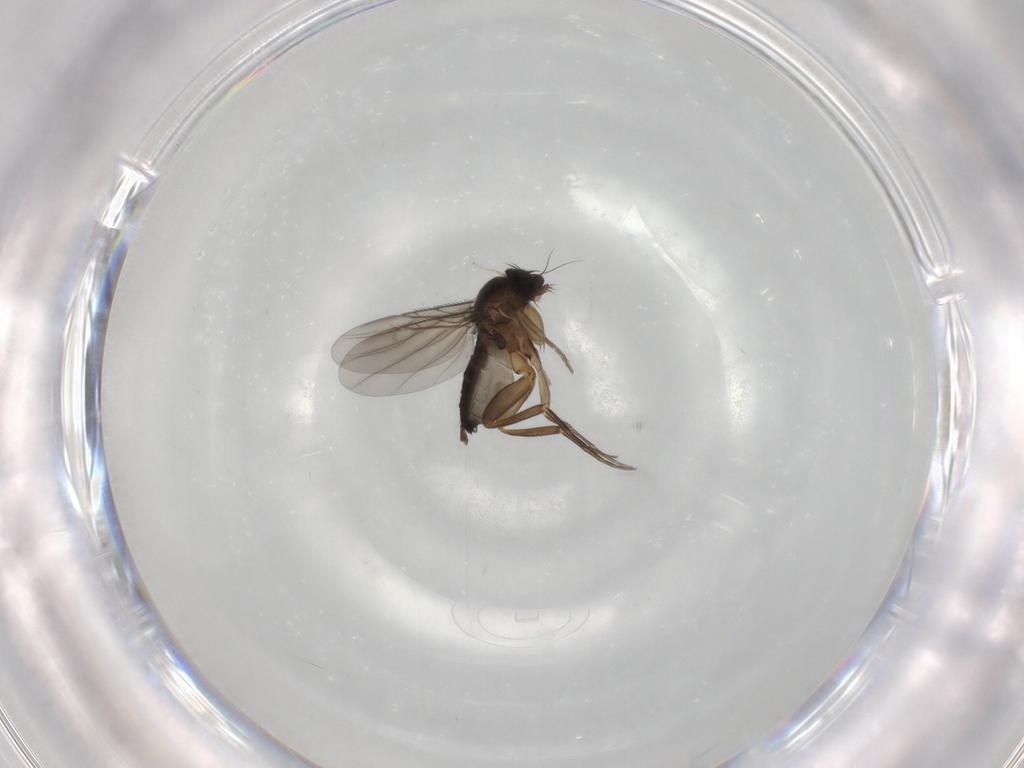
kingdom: Animalia
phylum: Arthropoda
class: Insecta
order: Diptera
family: Phoridae
